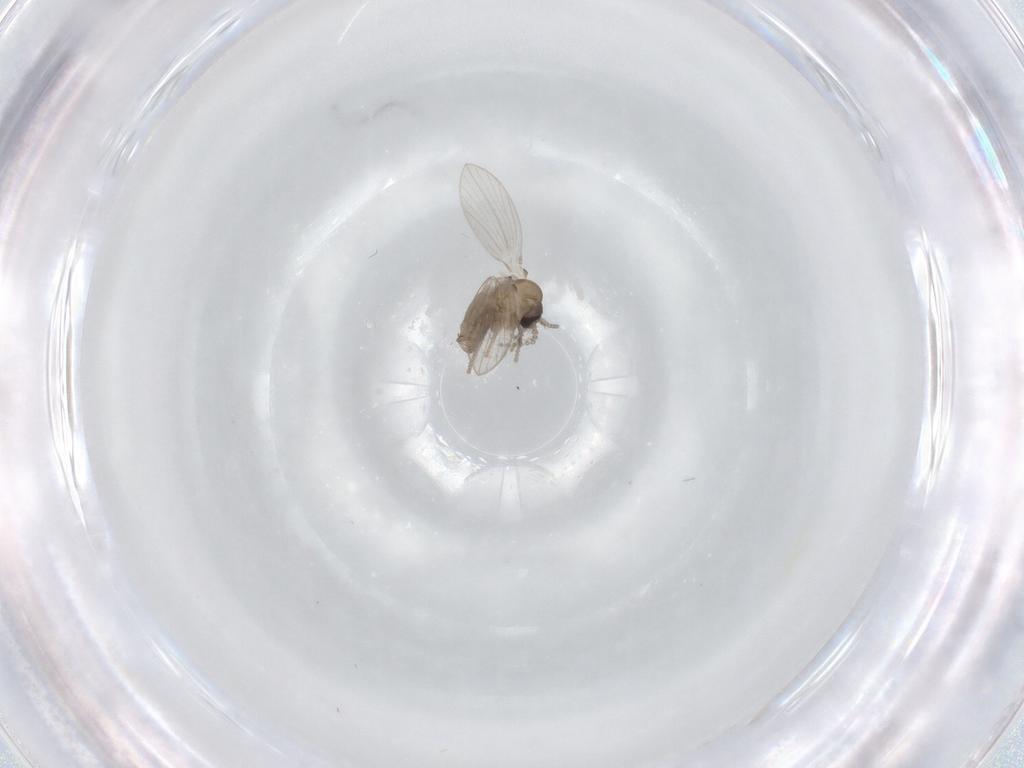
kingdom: Animalia
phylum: Arthropoda
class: Insecta
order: Diptera
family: Psychodidae
